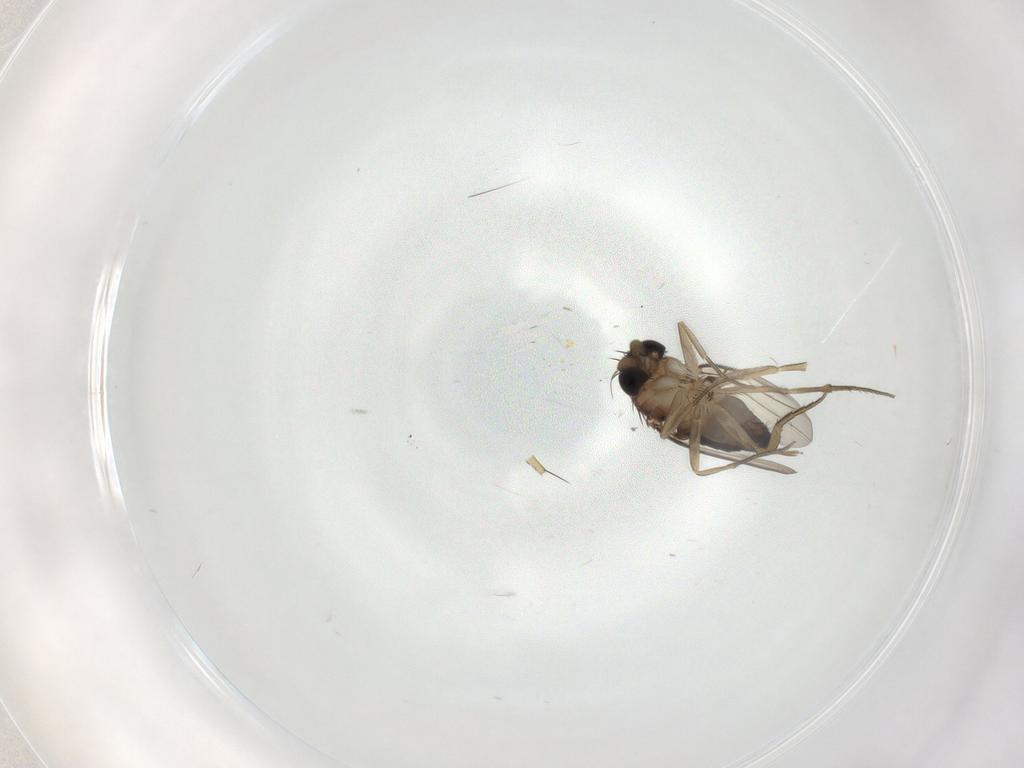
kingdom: Animalia
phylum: Arthropoda
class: Insecta
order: Diptera
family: Phoridae
